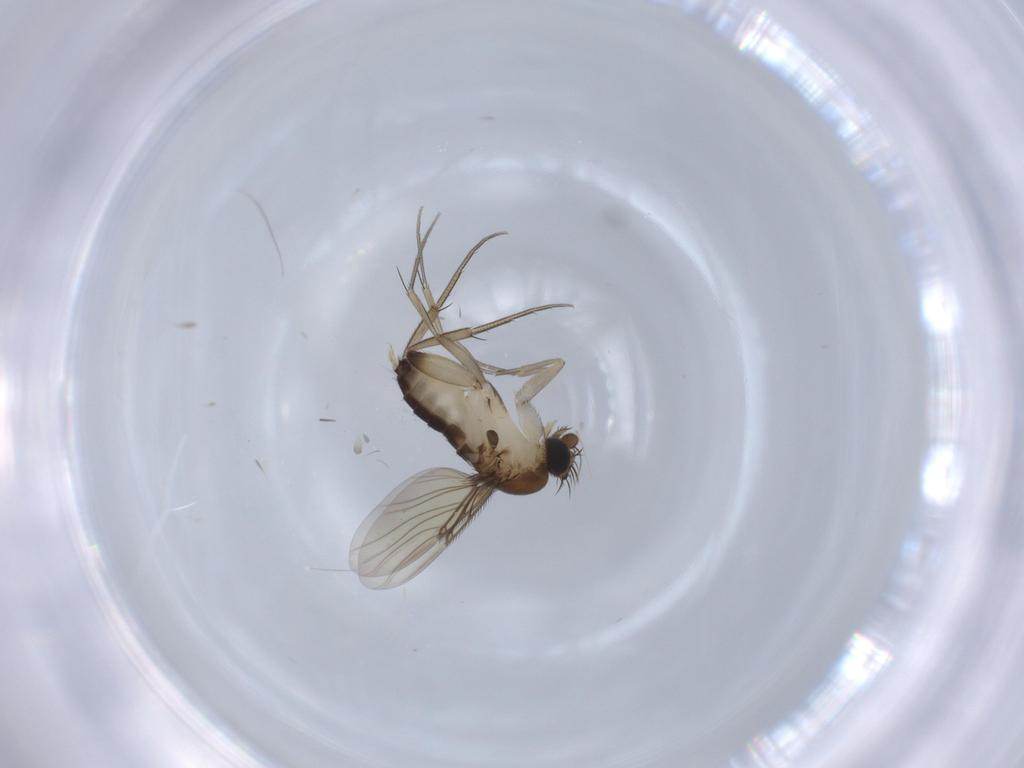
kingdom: Animalia
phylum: Arthropoda
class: Insecta
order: Diptera
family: Phoridae
